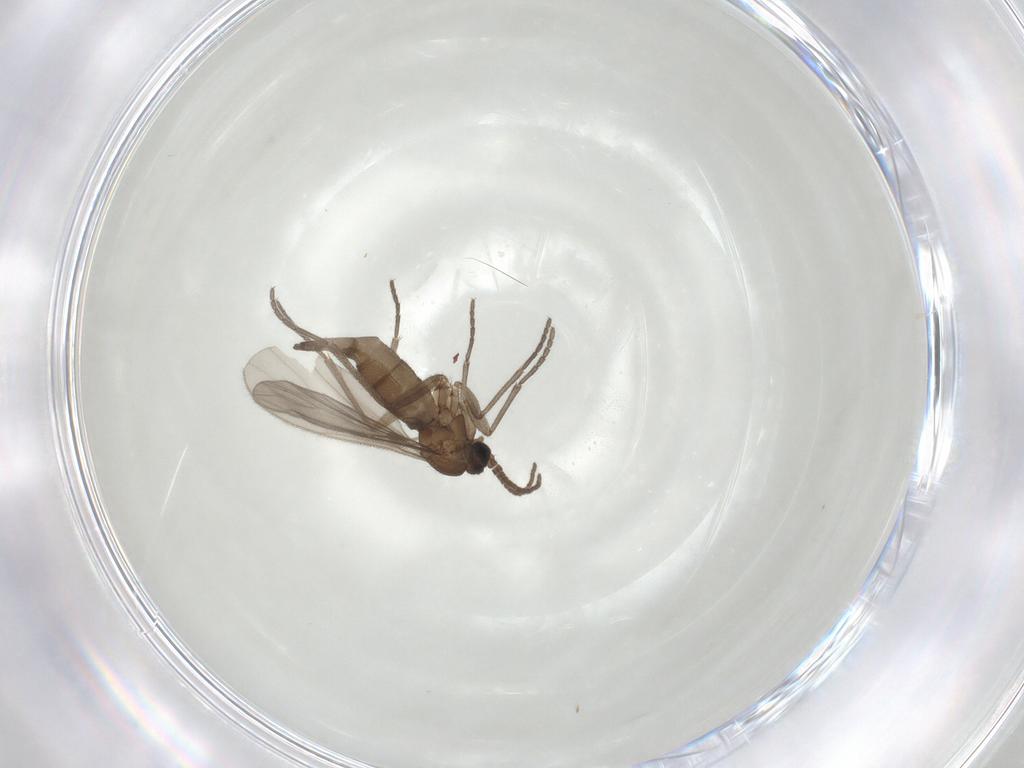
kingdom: Animalia
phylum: Arthropoda
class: Insecta
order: Diptera
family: Sciaridae
